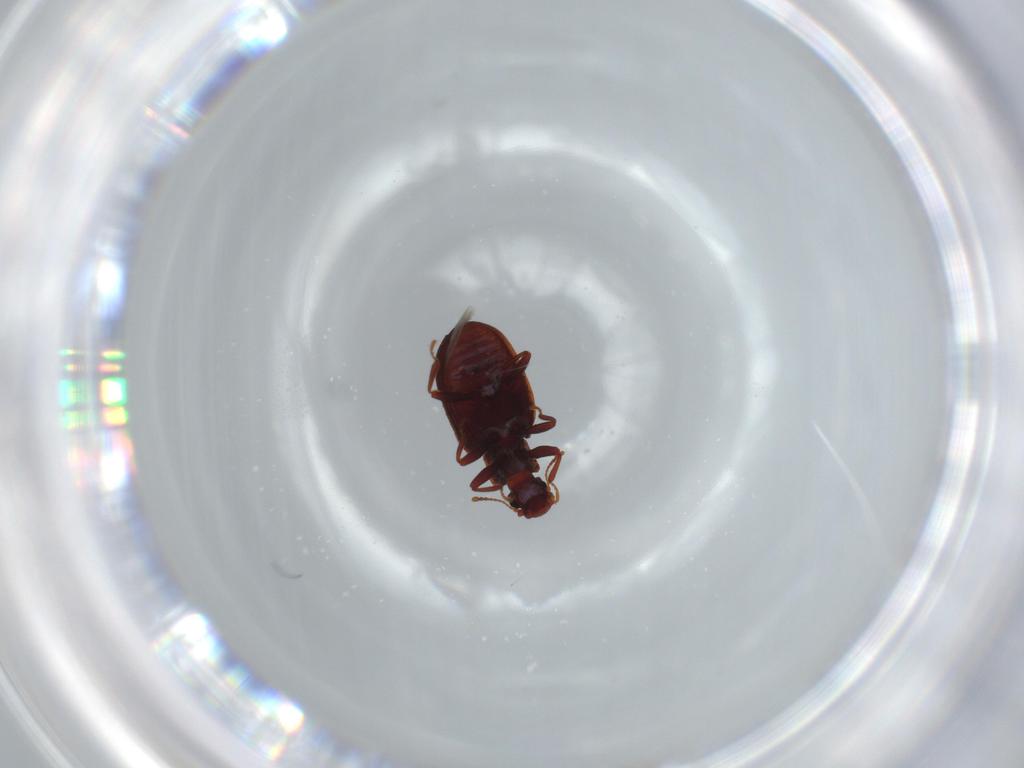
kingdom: Animalia
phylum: Arthropoda
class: Insecta
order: Coleoptera
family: Latridiidae
